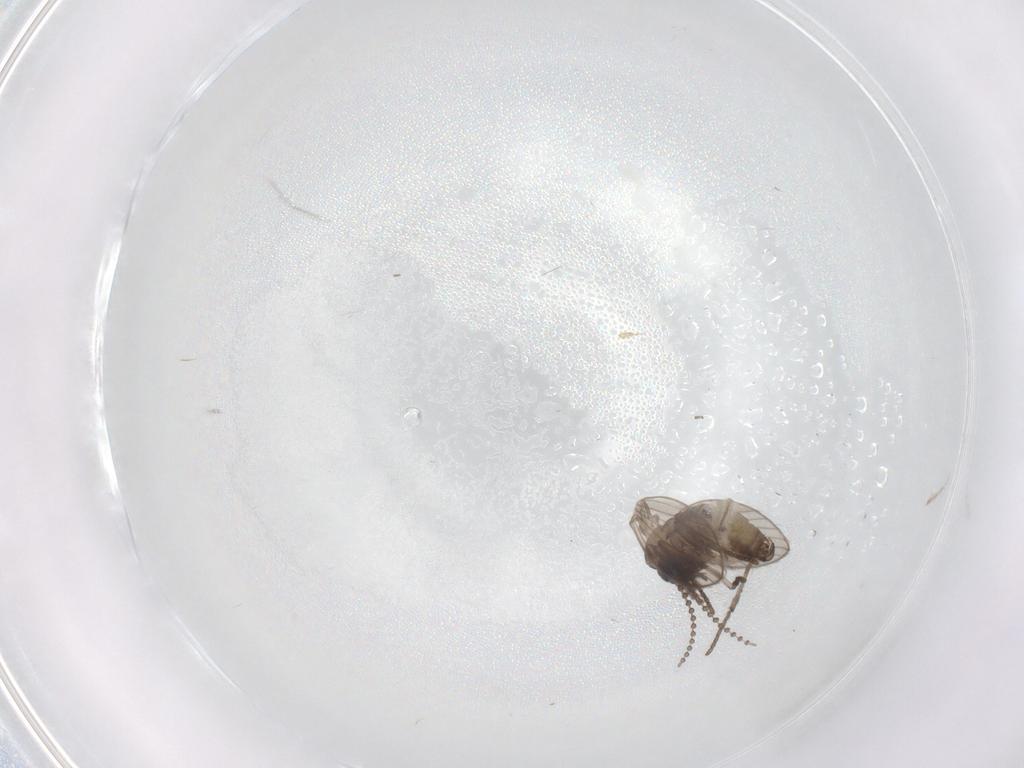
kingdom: Animalia
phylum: Arthropoda
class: Insecta
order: Diptera
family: Psychodidae
